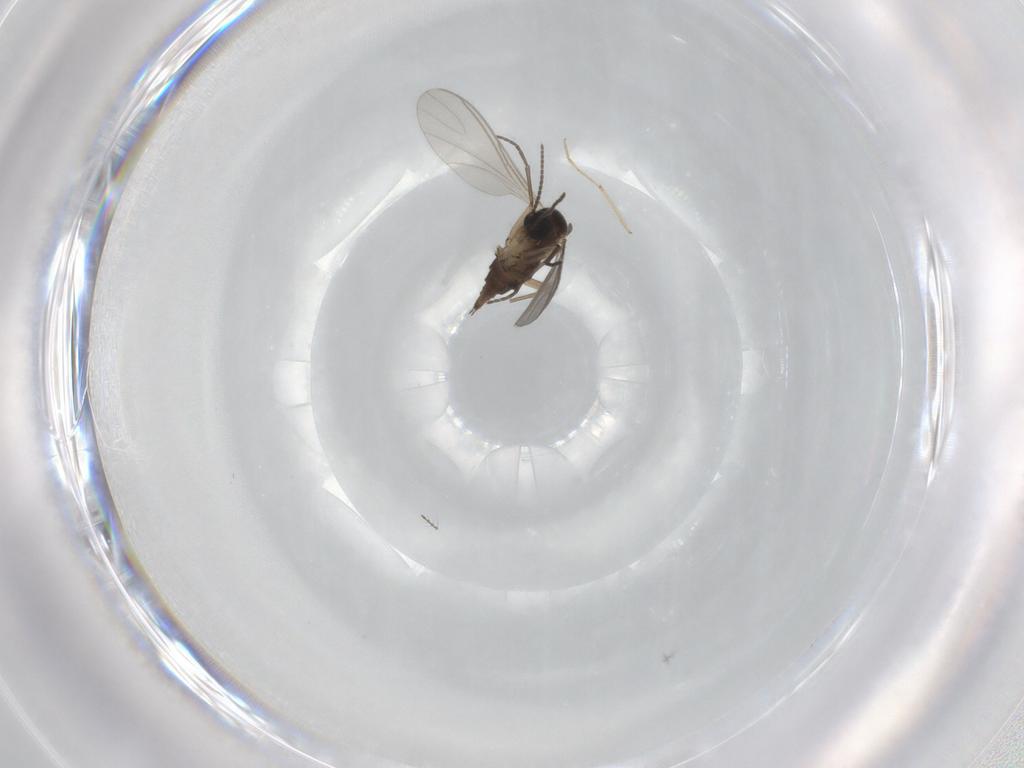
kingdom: Animalia
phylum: Arthropoda
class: Insecta
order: Diptera
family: Sciaridae
